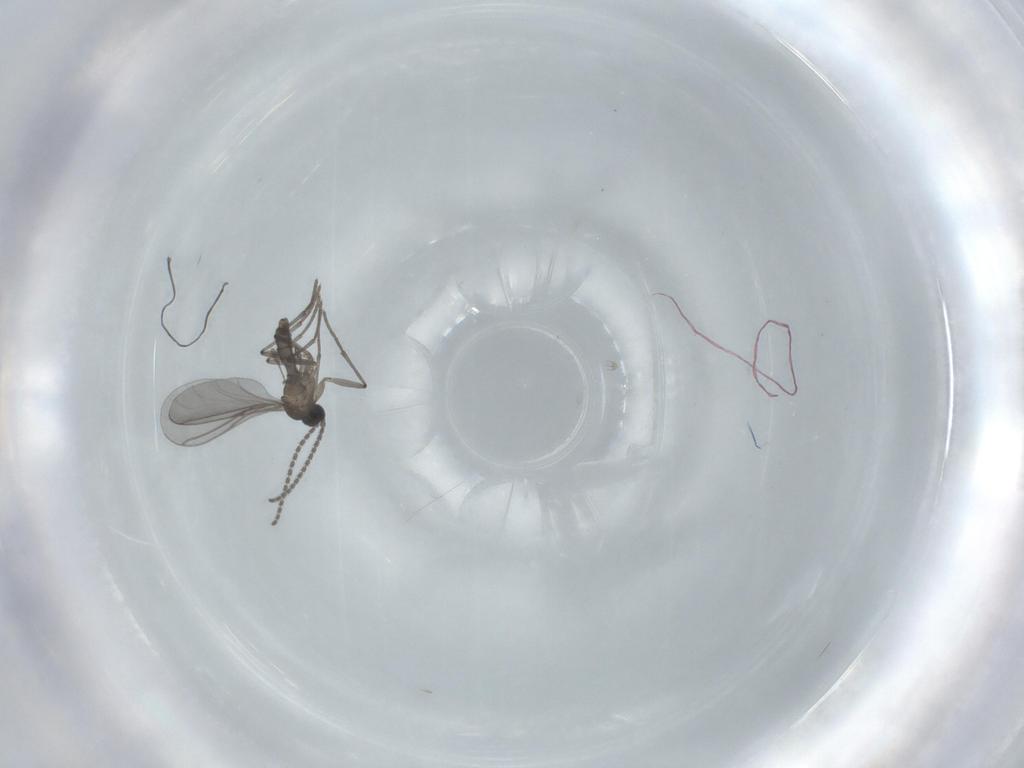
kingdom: Animalia
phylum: Arthropoda
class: Insecta
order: Diptera
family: Sciaridae
